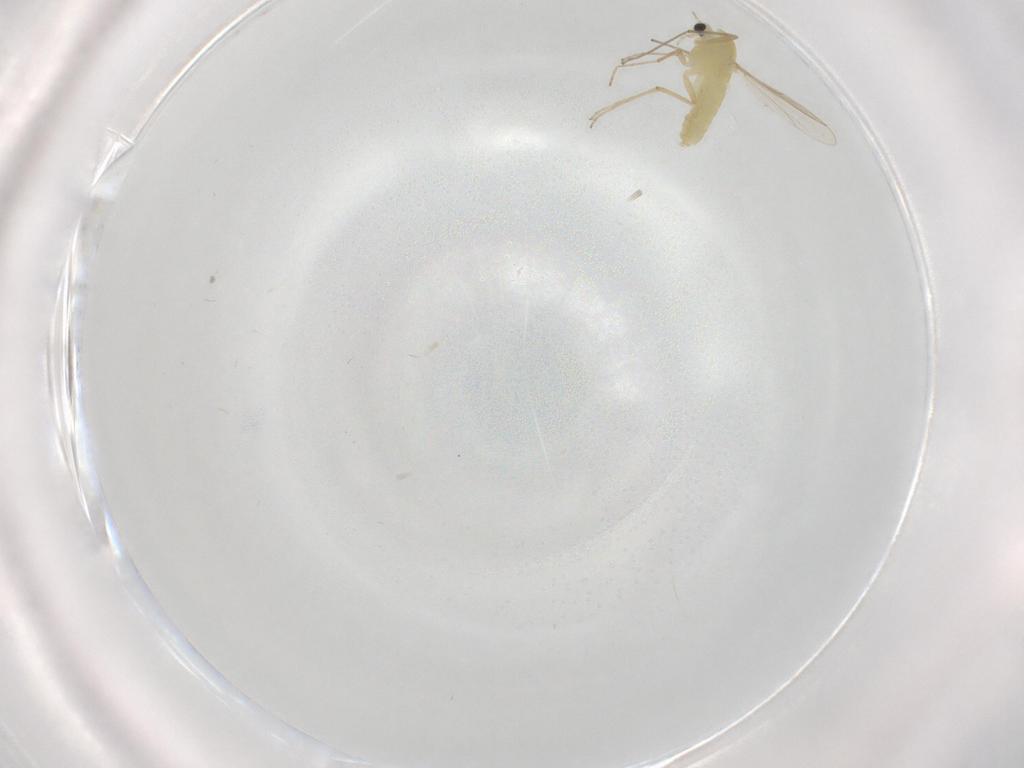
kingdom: Animalia
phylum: Arthropoda
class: Insecta
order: Diptera
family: Chironomidae
